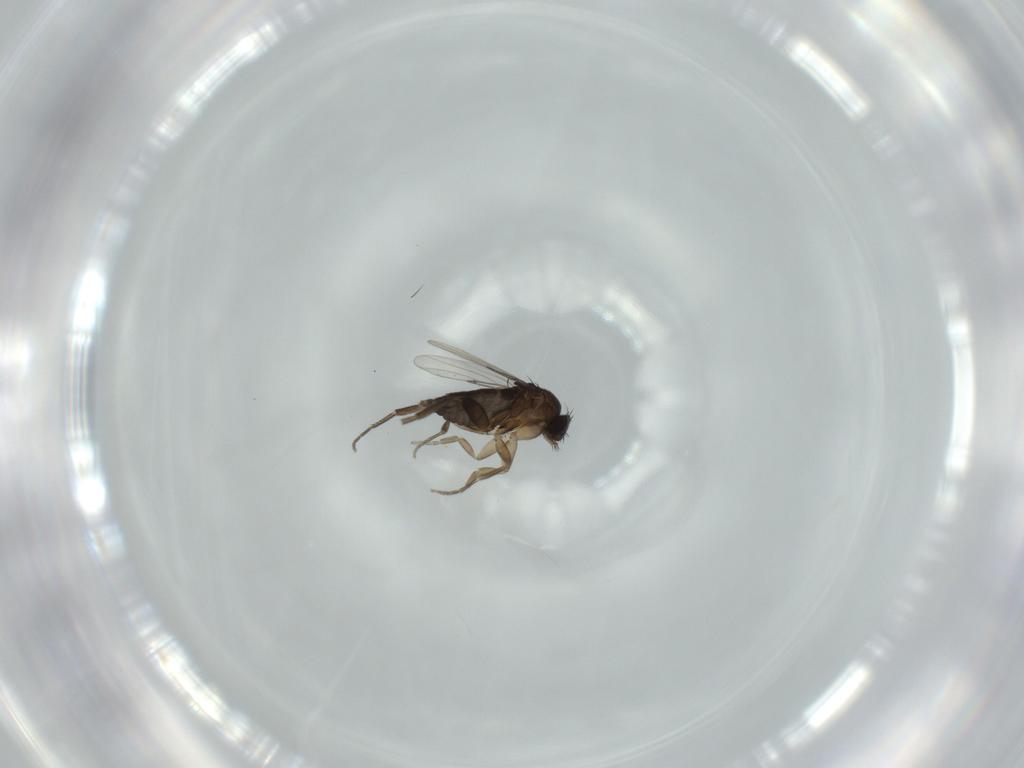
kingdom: Animalia
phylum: Arthropoda
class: Insecta
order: Diptera
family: Phoridae
